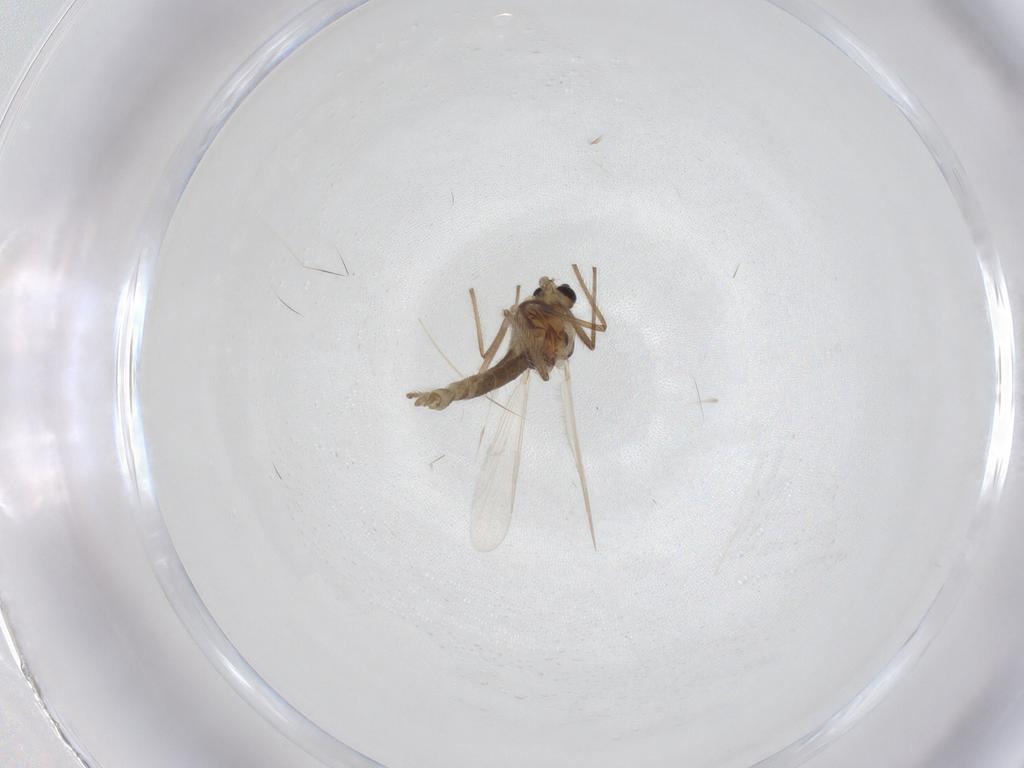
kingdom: Animalia
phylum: Arthropoda
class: Insecta
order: Diptera
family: Chironomidae
